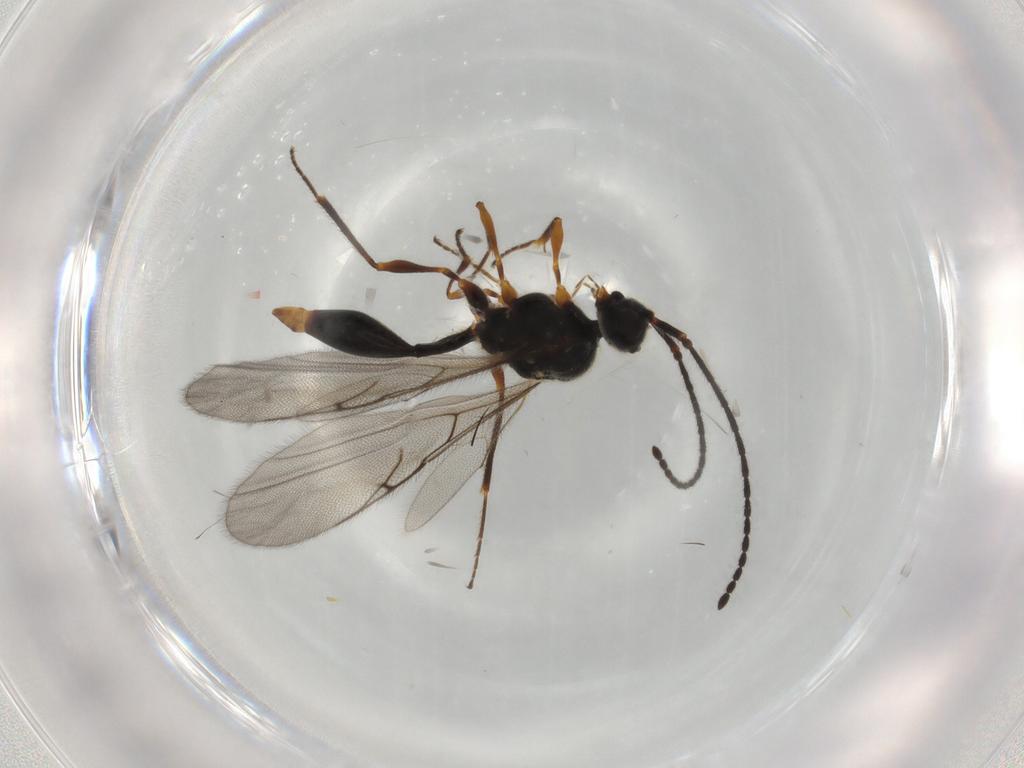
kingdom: Animalia
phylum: Arthropoda
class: Insecta
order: Hymenoptera
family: Diapriidae
